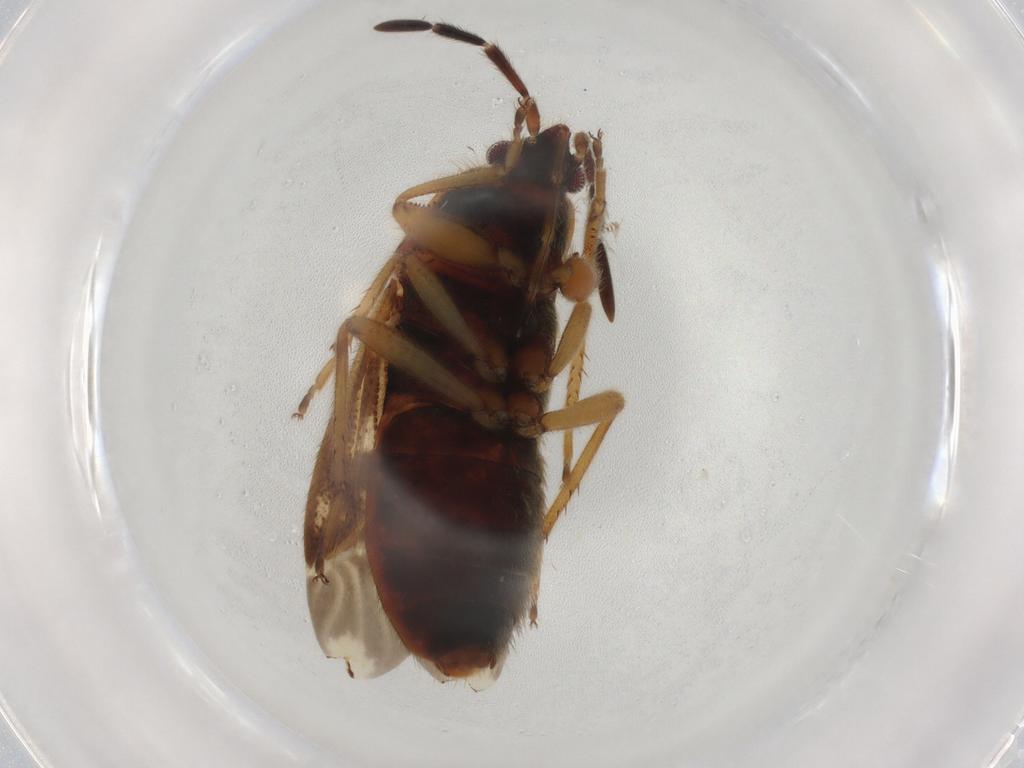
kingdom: Animalia
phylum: Arthropoda
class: Insecta
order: Hemiptera
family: Rhyparochromidae
